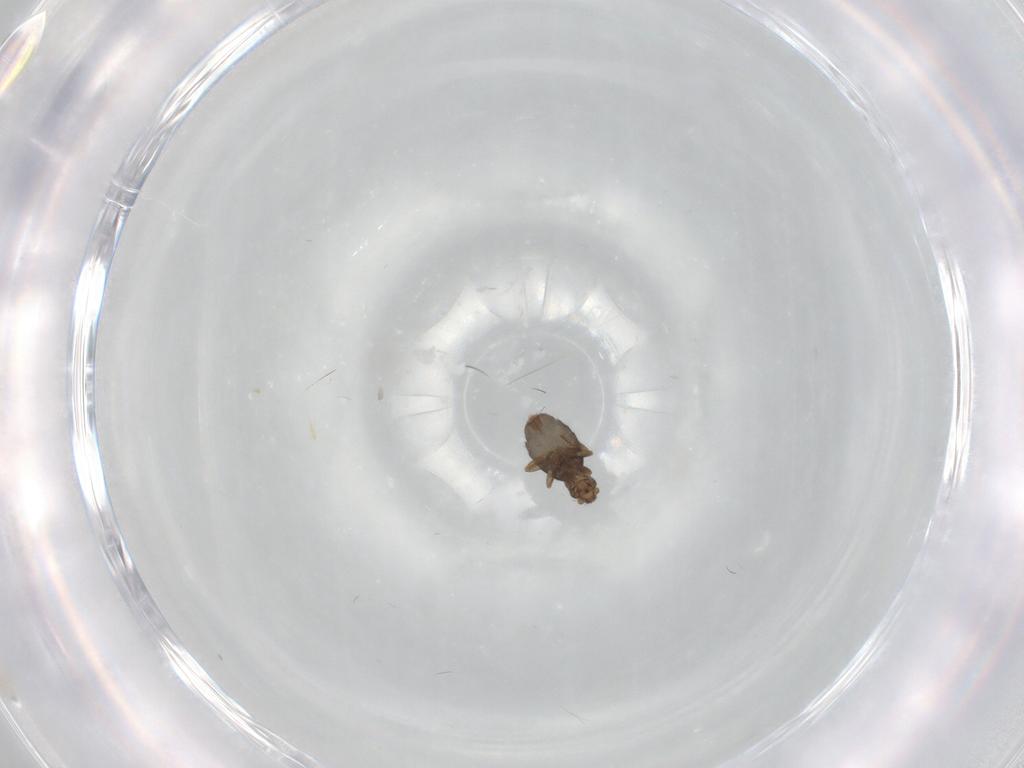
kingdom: Animalia
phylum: Arthropoda
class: Insecta
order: Diptera
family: Phoridae
